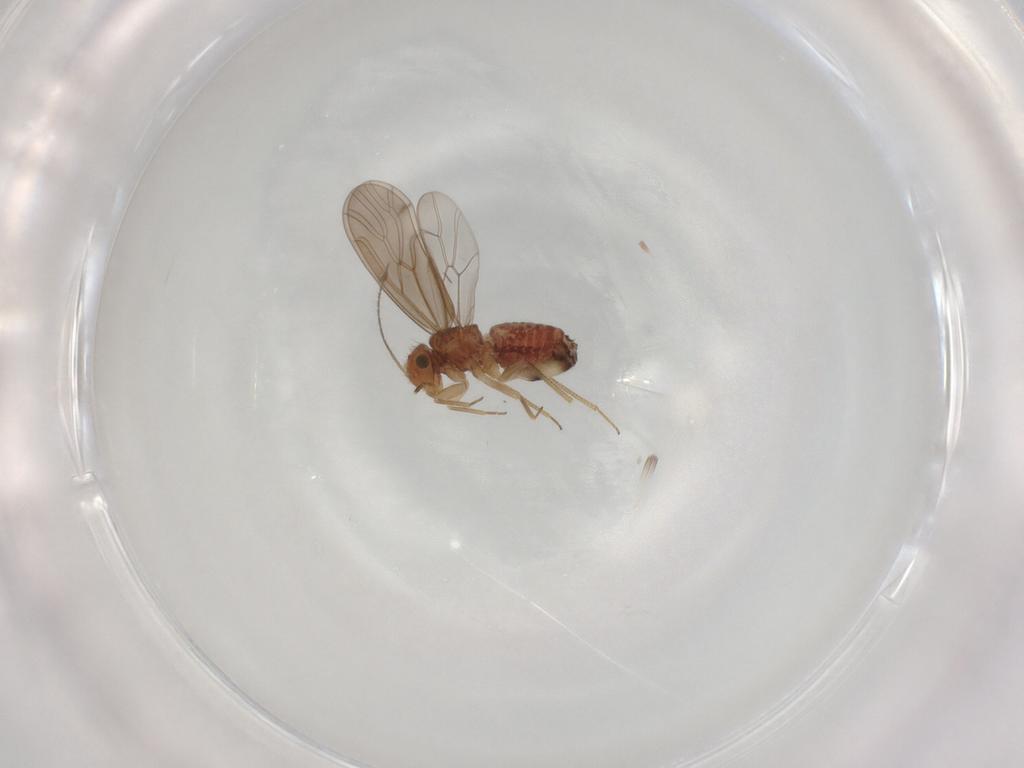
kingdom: Animalia
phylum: Arthropoda
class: Insecta
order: Psocodea
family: Ectopsocidae
